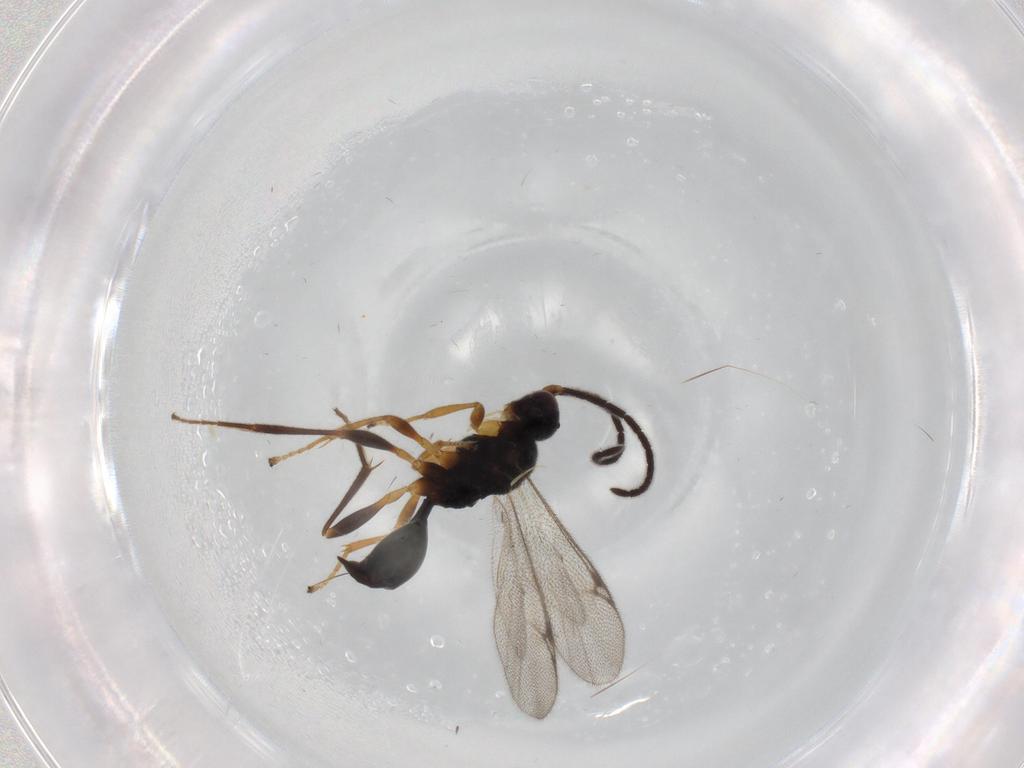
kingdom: Animalia
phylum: Arthropoda
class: Insecta
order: Hymenoptera
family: Proctotrupidae
